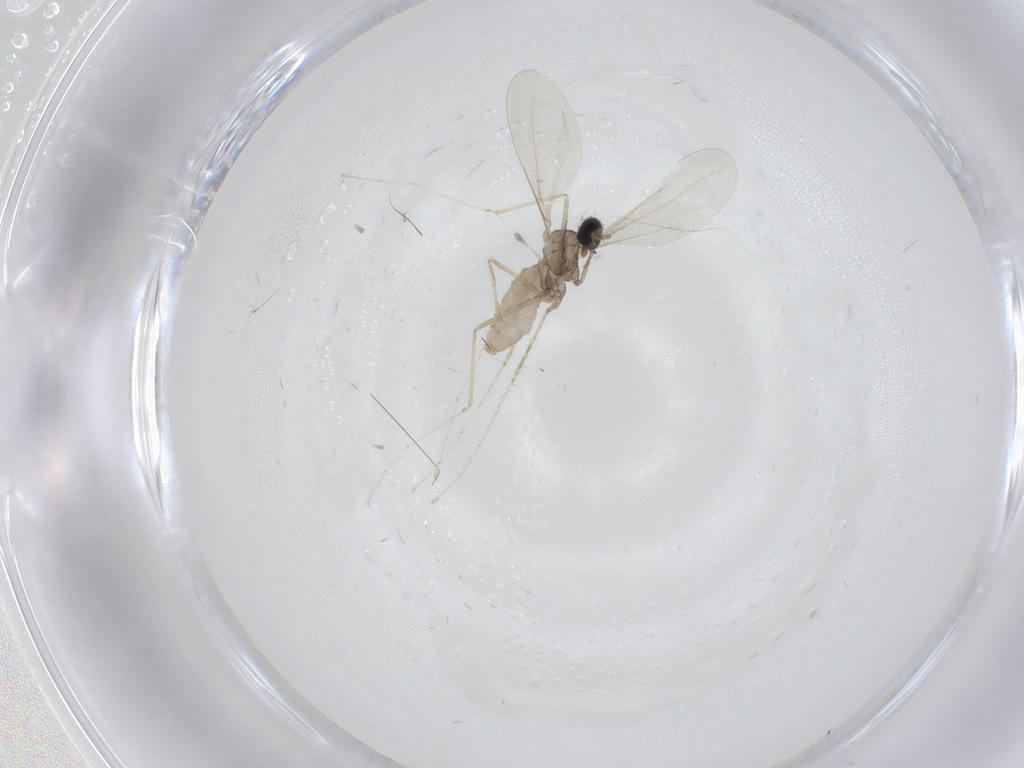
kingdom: Animalia
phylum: Arthropoda
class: Insecta
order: Diptera
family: Cecidomyiidae
